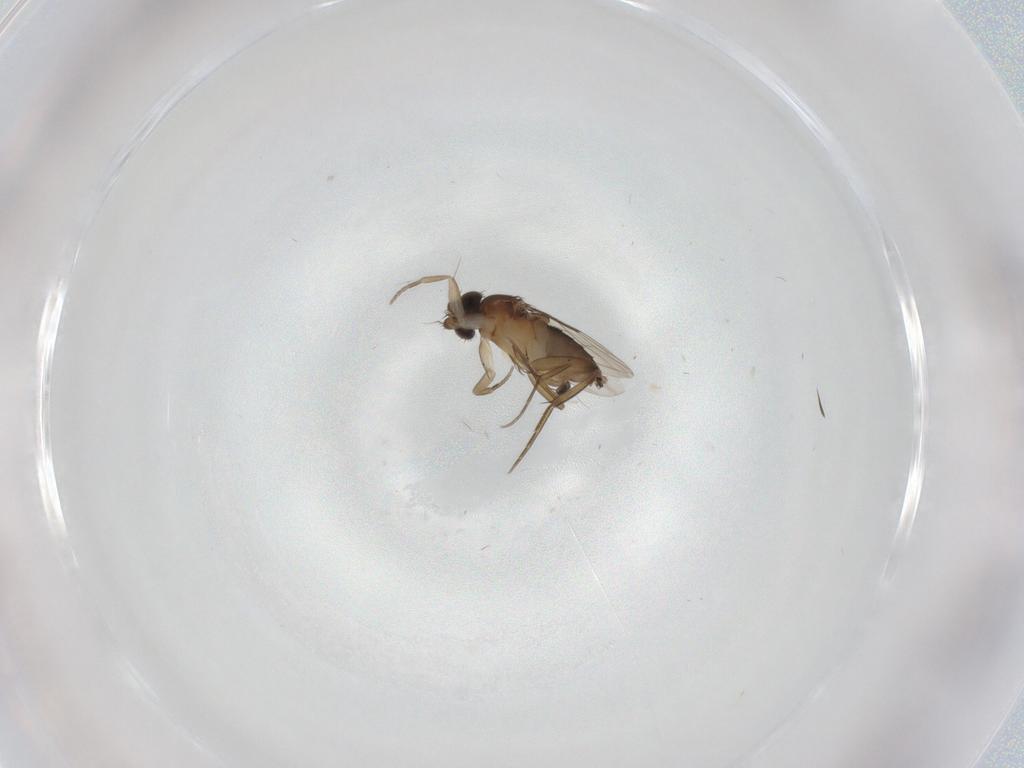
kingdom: Animalia
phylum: Arthropoda
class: Insecta
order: Diptera
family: Phoridae
